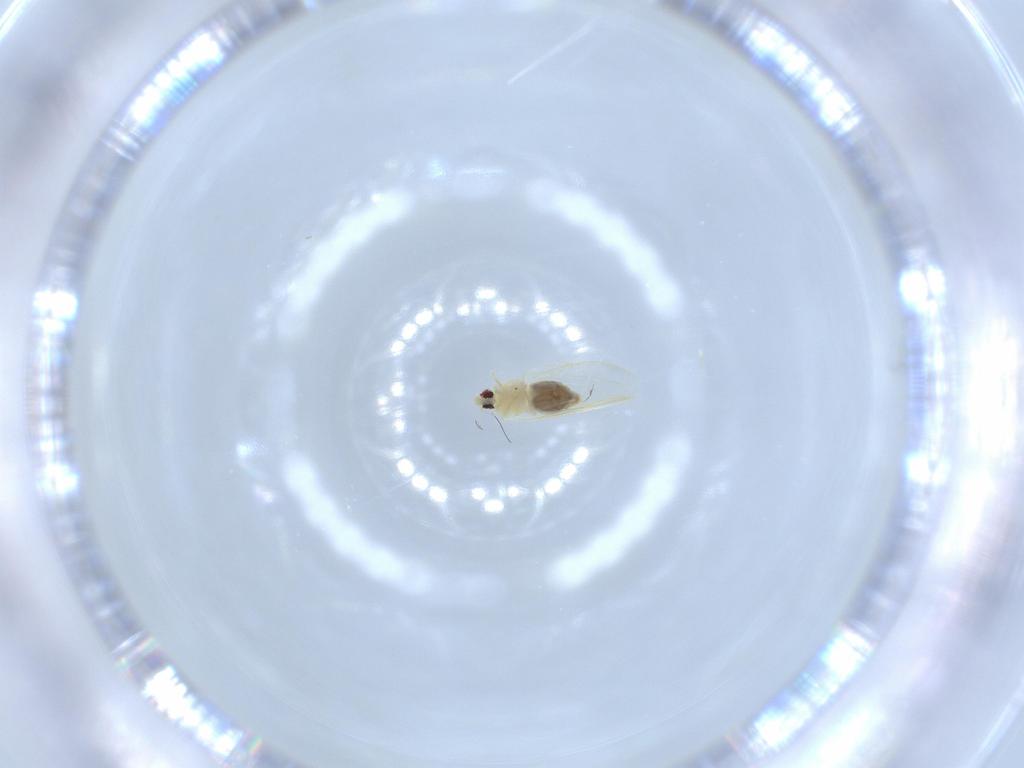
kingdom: Animalia
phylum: Arthropoda
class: Insecta
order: Hemiptera
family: Aleyrodidae
